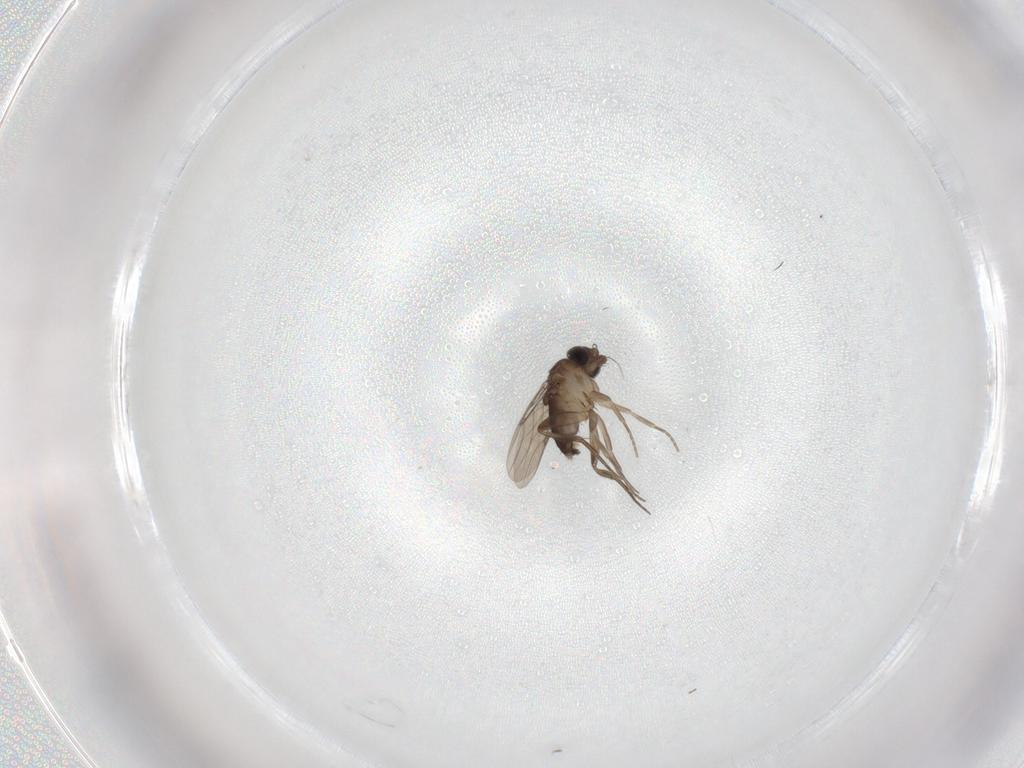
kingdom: Animalia
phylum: Arthropoda
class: Insecta
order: Diptera
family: Phoridae
